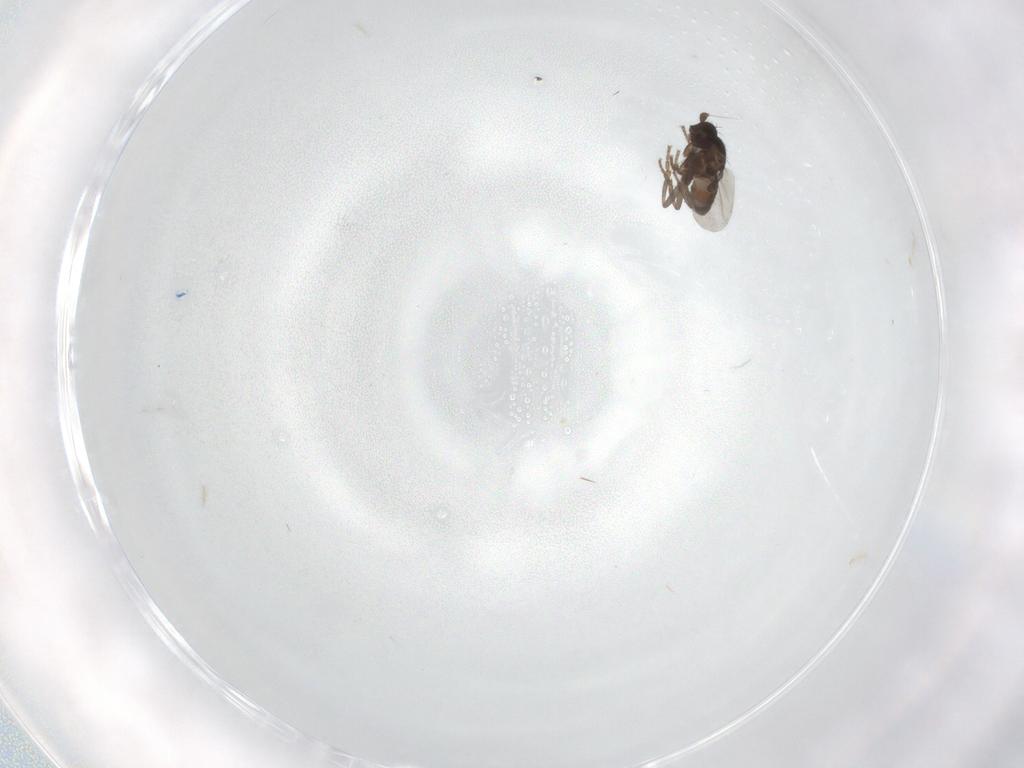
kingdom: Animalia
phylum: Arthropoda
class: Insecta
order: Diptera
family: Sphaeroceridae
